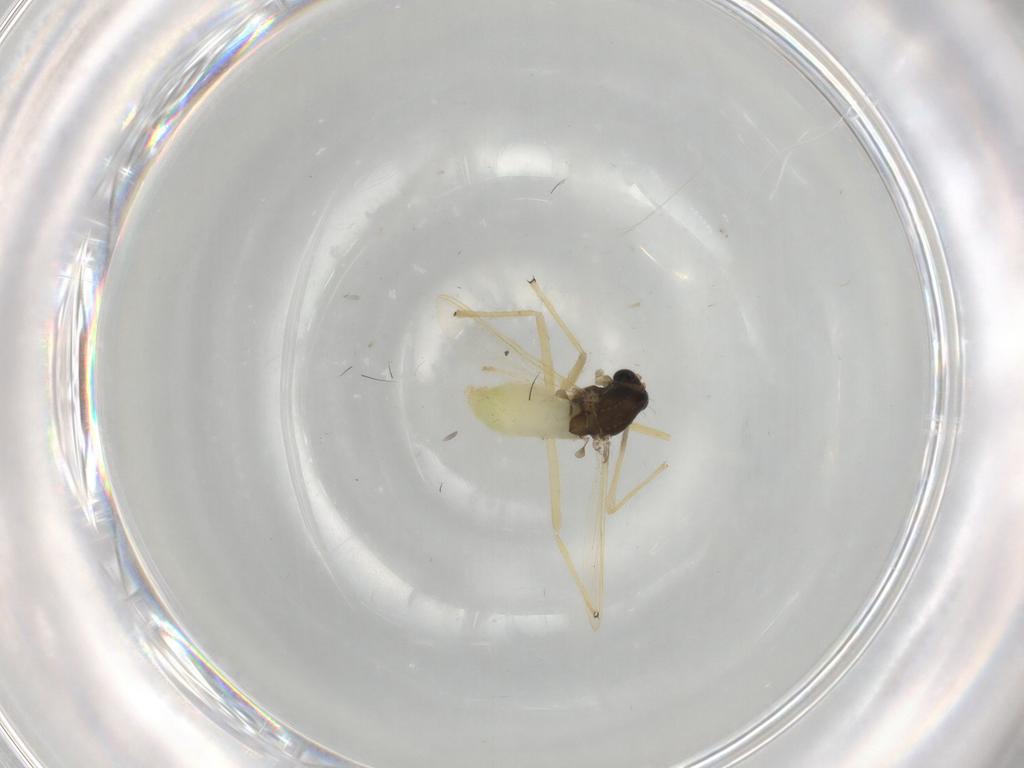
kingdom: Animalia
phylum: Arthropoda
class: Insecta
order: Diptera
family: Chironomidae
